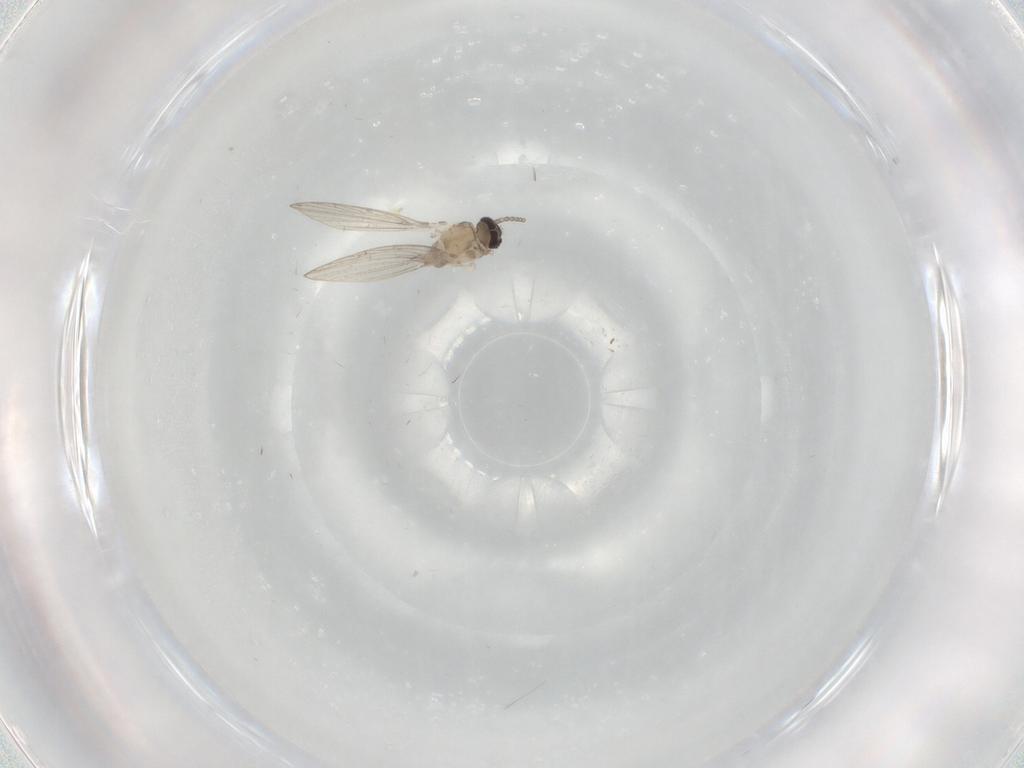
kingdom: Animalia
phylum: Arthropoda
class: Insecta
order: Diptera
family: Psychodidae
